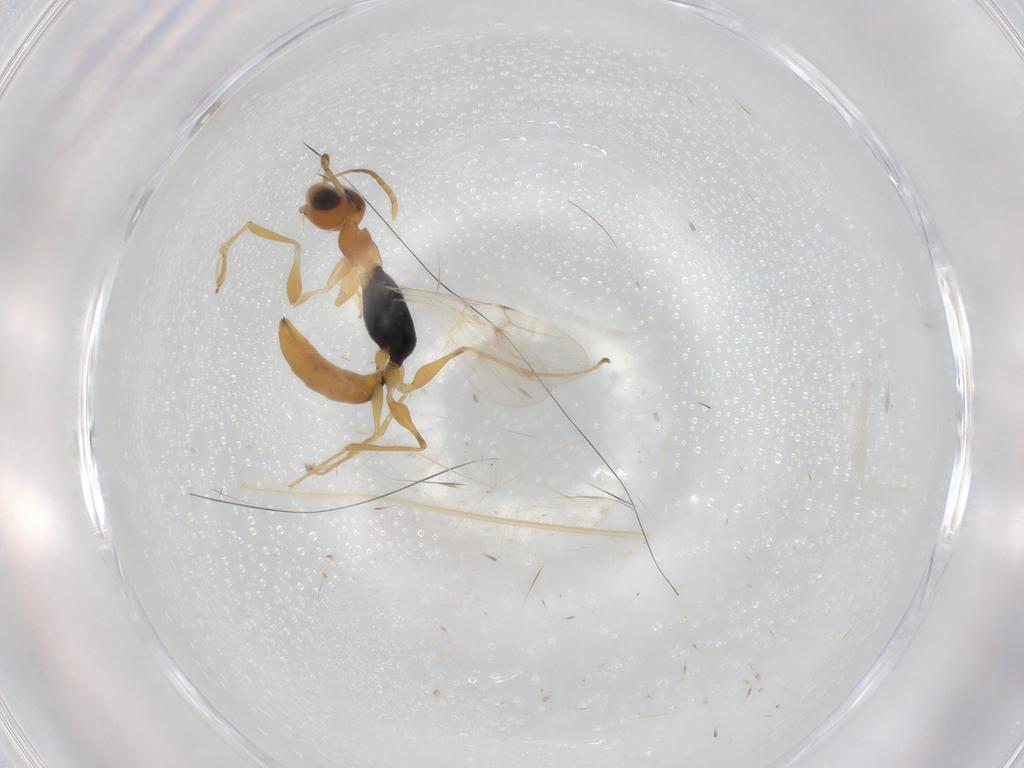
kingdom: Animalia
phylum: Arthropoda
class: Insecta
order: Hymenoptera
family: Dryinidae
